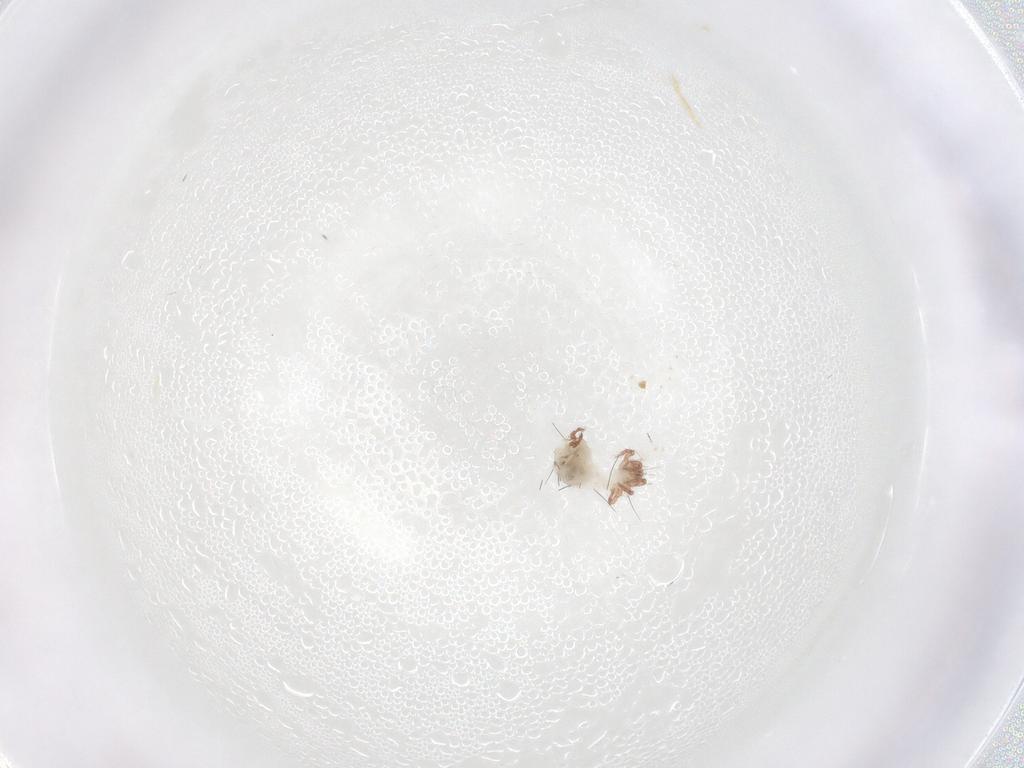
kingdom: Animalia
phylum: Arthropoda
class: Arachnida
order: Sarcoptiformes
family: Ceratozetidae
